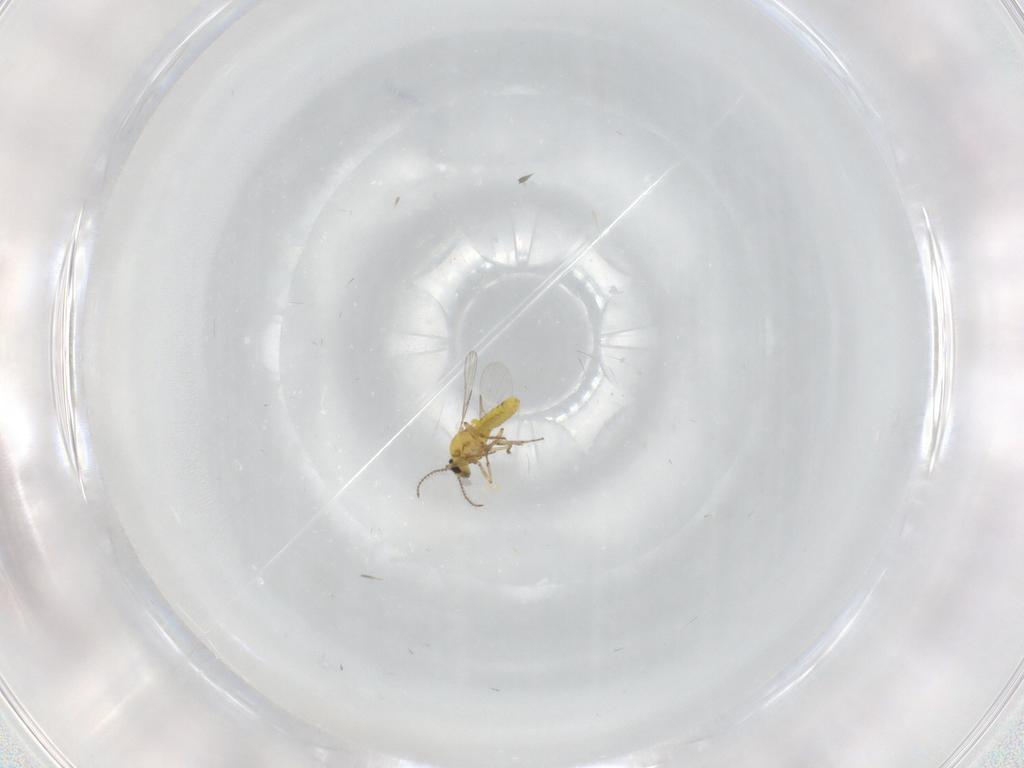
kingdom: Animalia
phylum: Arthropoda
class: Insecta
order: Diptera
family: Ceratopogonidae
